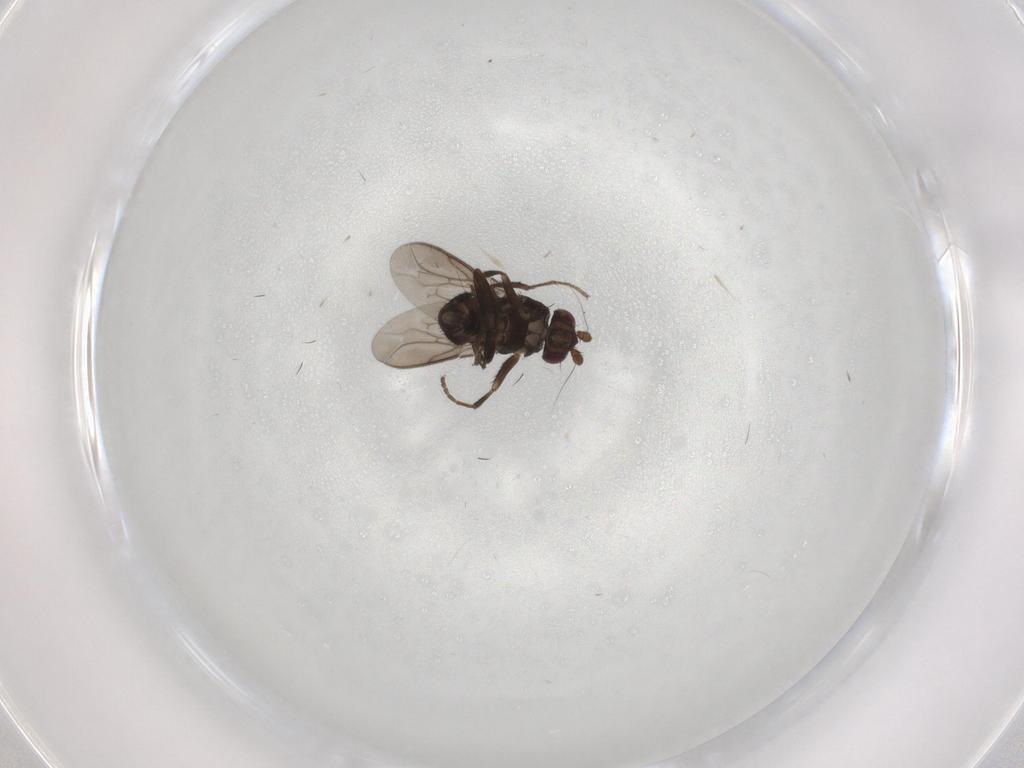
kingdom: Animalia
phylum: Arthropoda
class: Insecta
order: Diptera
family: Sphaeroceridae
